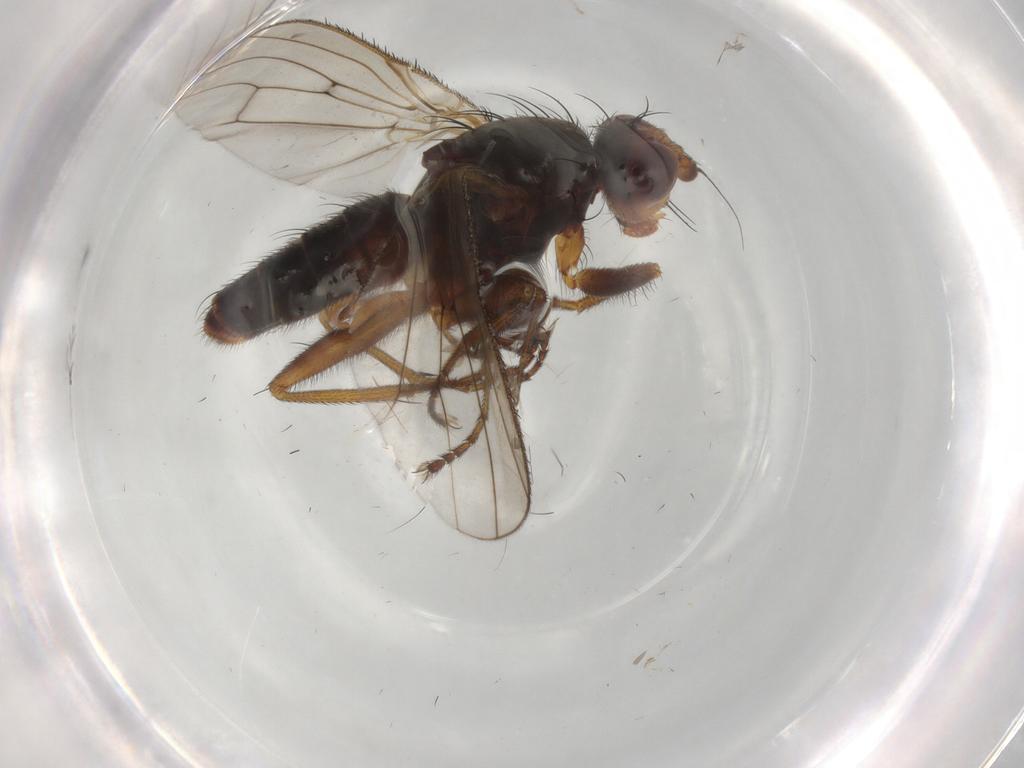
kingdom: Animalia
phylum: Arthropoda
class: Insecta
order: Diptera
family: Heleomyzidae
